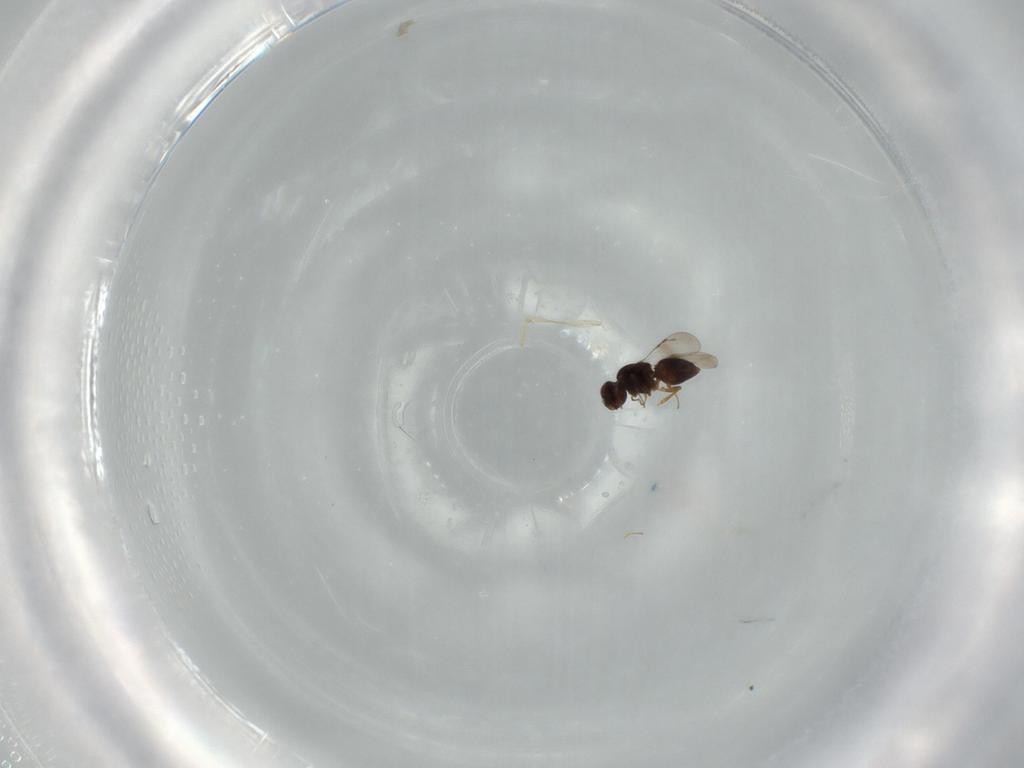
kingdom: Animalia
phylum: Arthropoda
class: Insecta
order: Hymenoptera
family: Ceraphronidae
